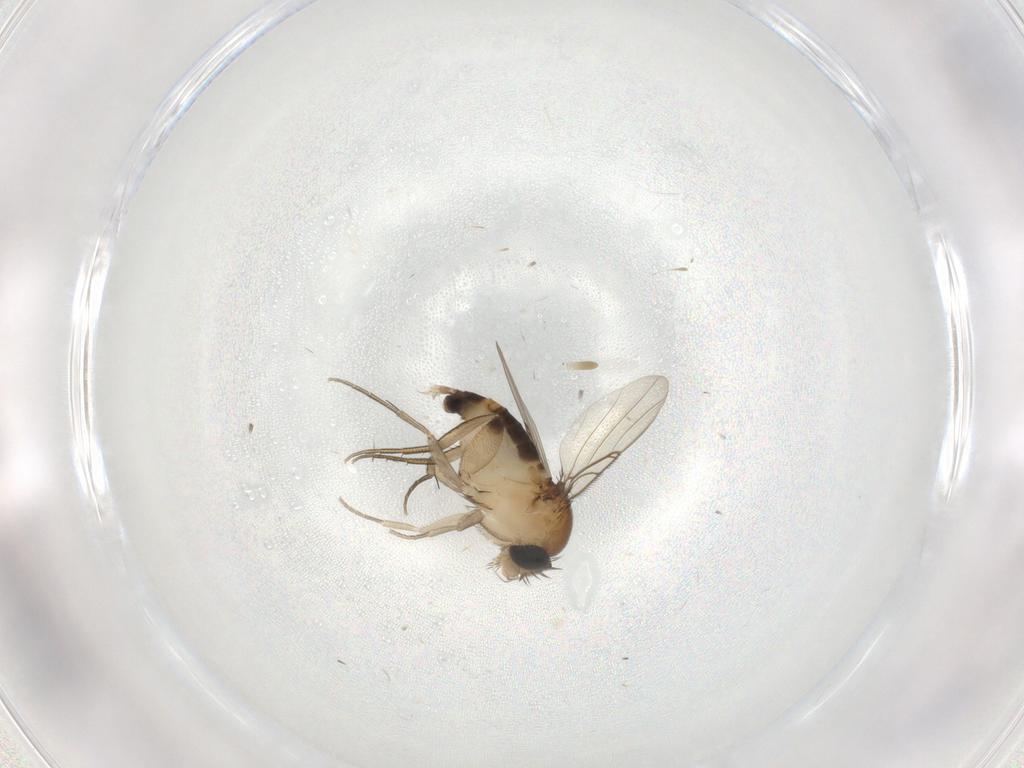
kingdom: Animalia
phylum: Arthropoda
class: Insecta
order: Diptera
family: Phoridae
